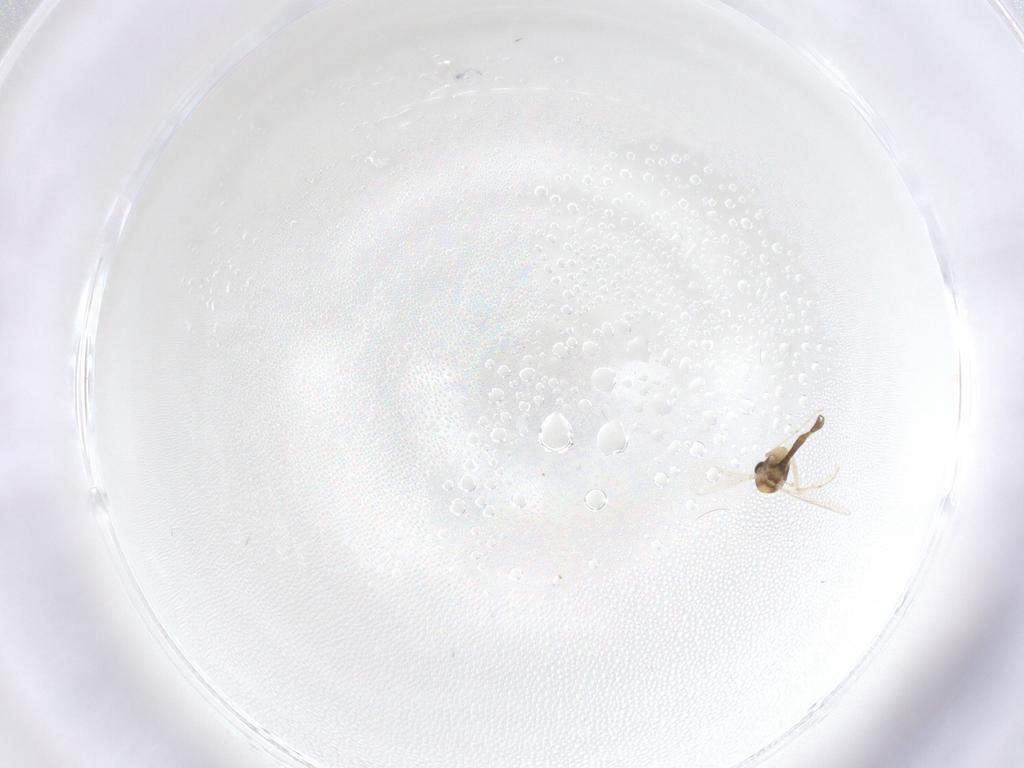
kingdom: Animalia
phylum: Arthropoda
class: Insecta
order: Diptera
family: Chironomidae
